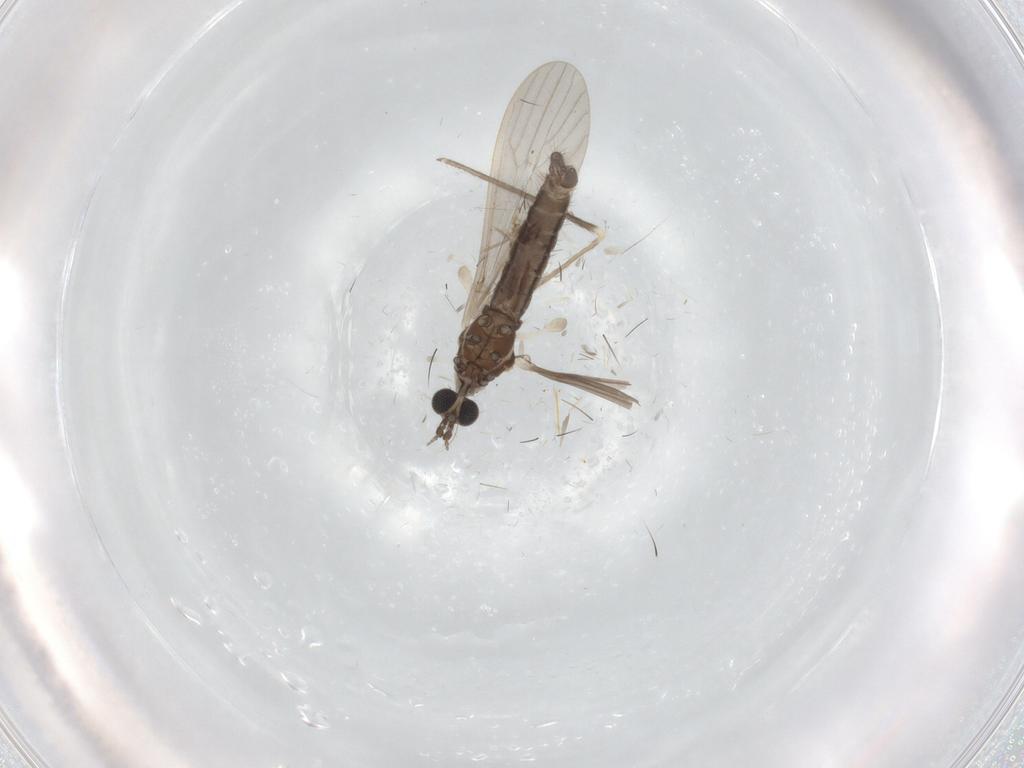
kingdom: Animalia
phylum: Arthropoda
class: Insecta
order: Diptera
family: Limoniidae
